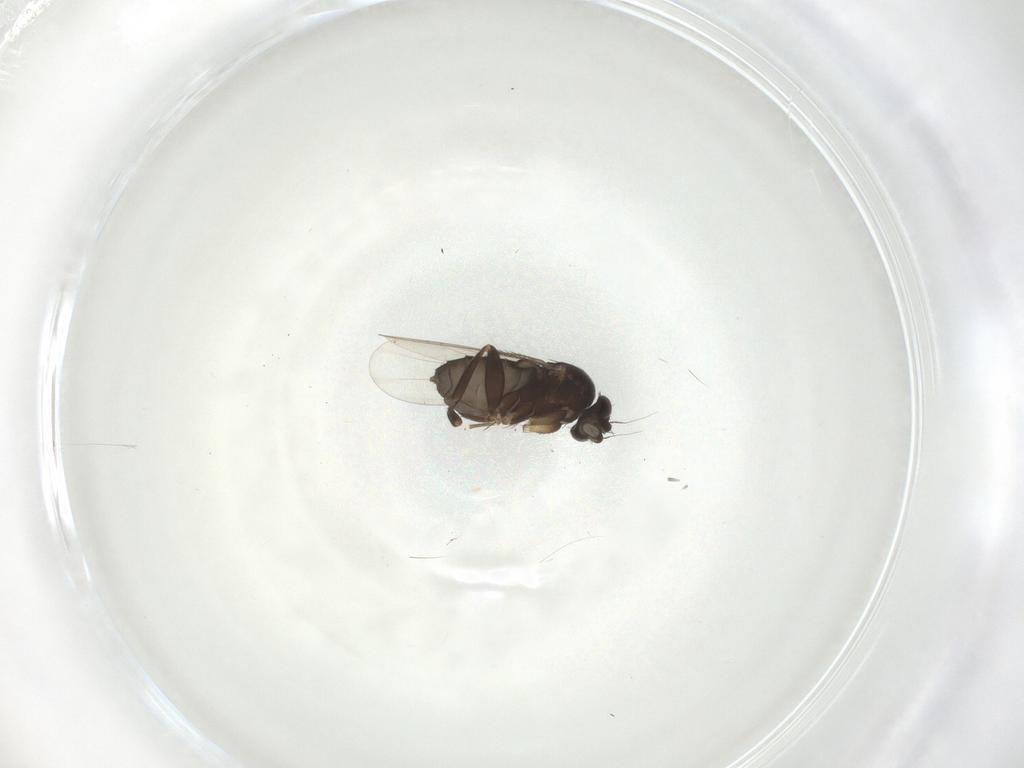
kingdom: Animalia
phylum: Arthropoda
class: Insecta
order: Diptera
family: Phoridae
